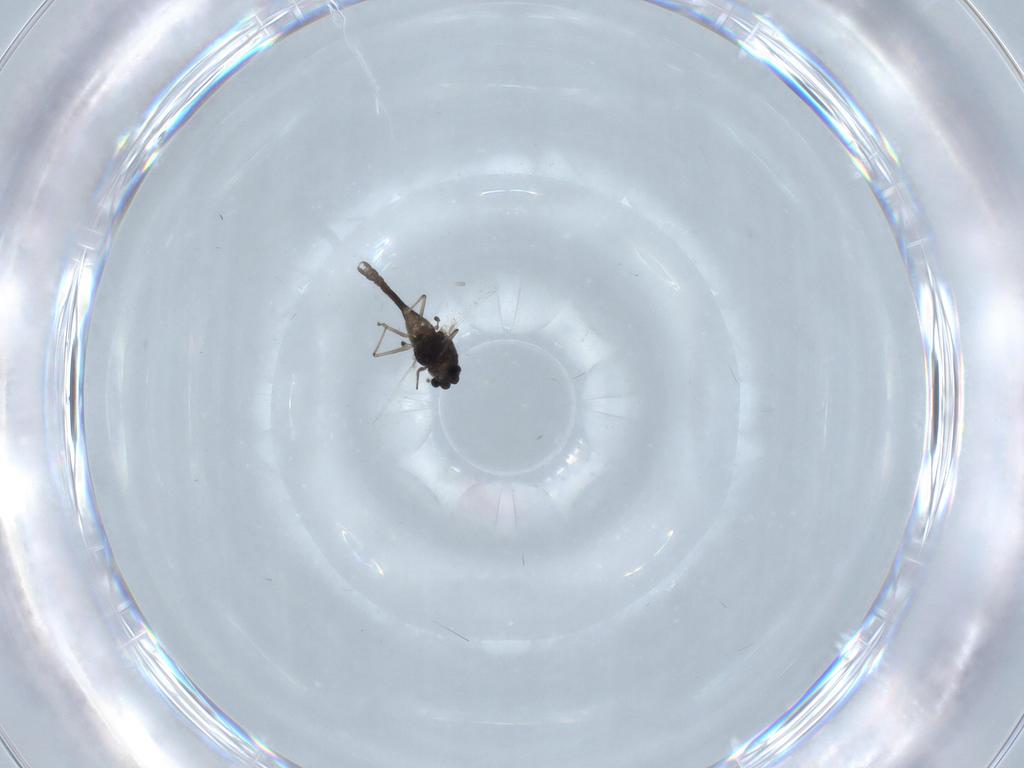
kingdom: Animalia
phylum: Arthropoda
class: Insecta
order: Diptera
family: Chironomidae
